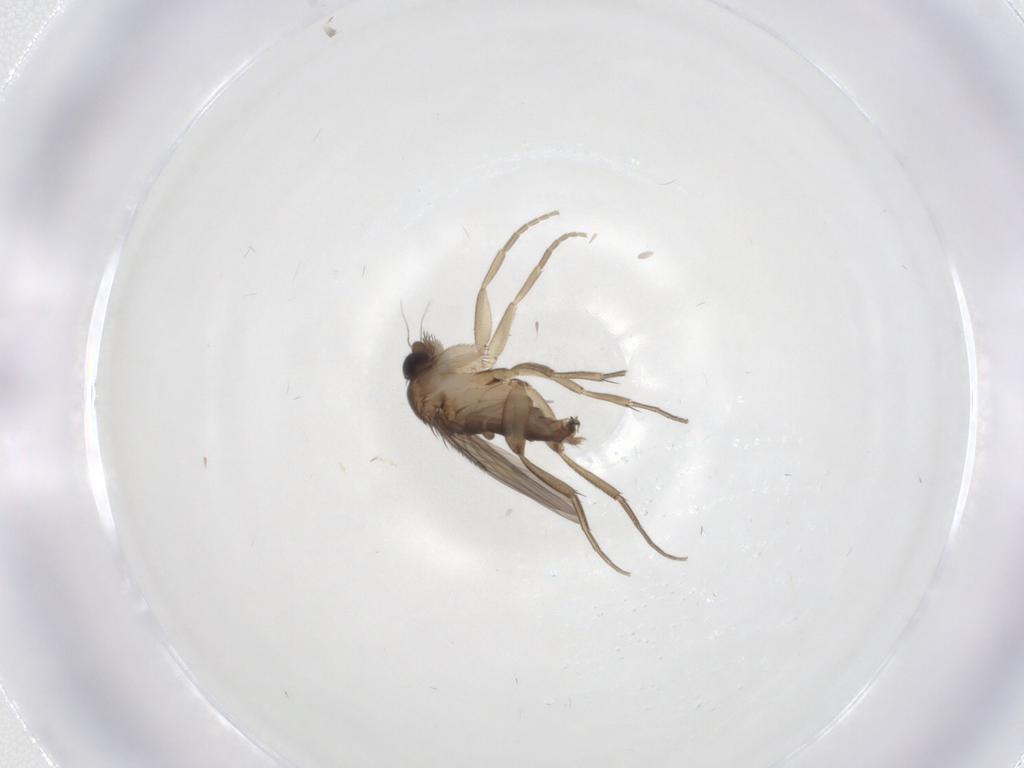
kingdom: Animalia
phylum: Arthropoda
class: Insecta
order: Diptera
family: Phoridae
